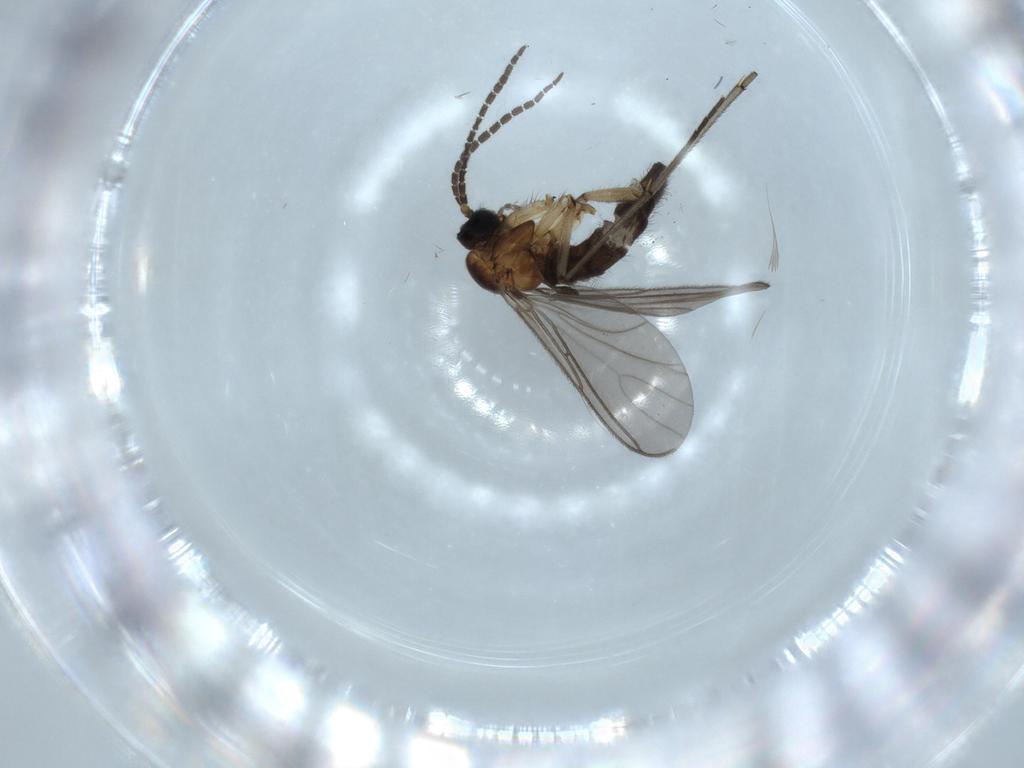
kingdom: Animalia
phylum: Arthropoda
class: Insecta
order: Diptera
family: Sciaridae
